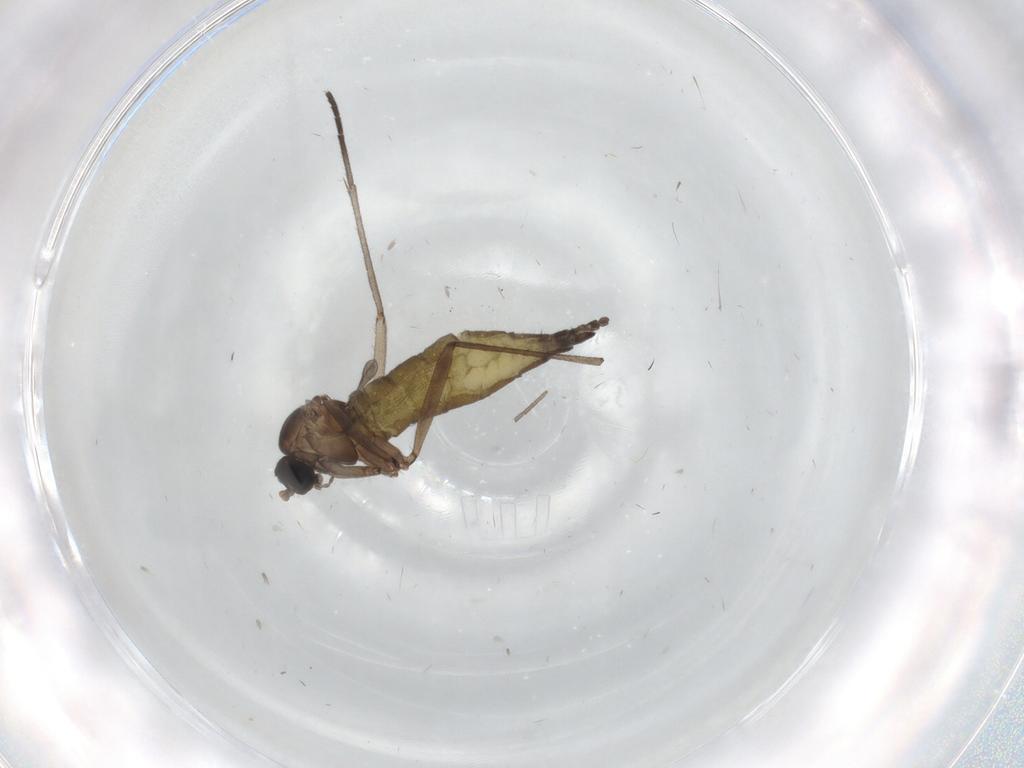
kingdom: Animalia
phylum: Arthropoda
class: Insecta
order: Diptera
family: Sciaridae
